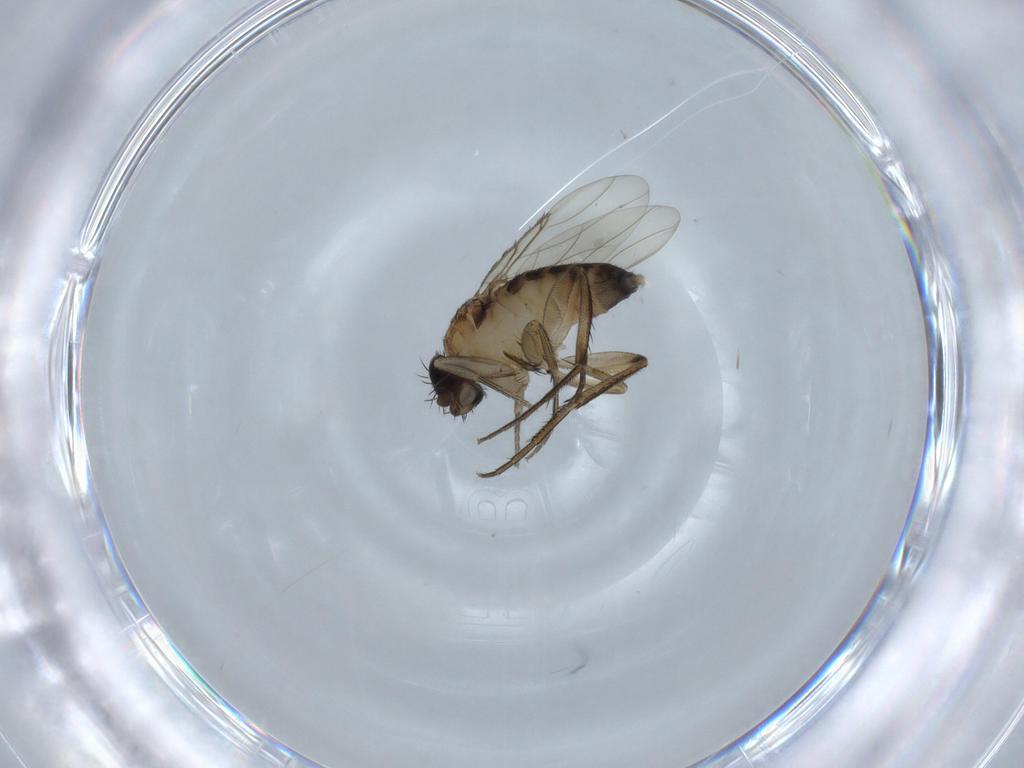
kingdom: Animalia
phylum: Arthropoda
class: Insecta
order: Diptera
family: Phoridae
